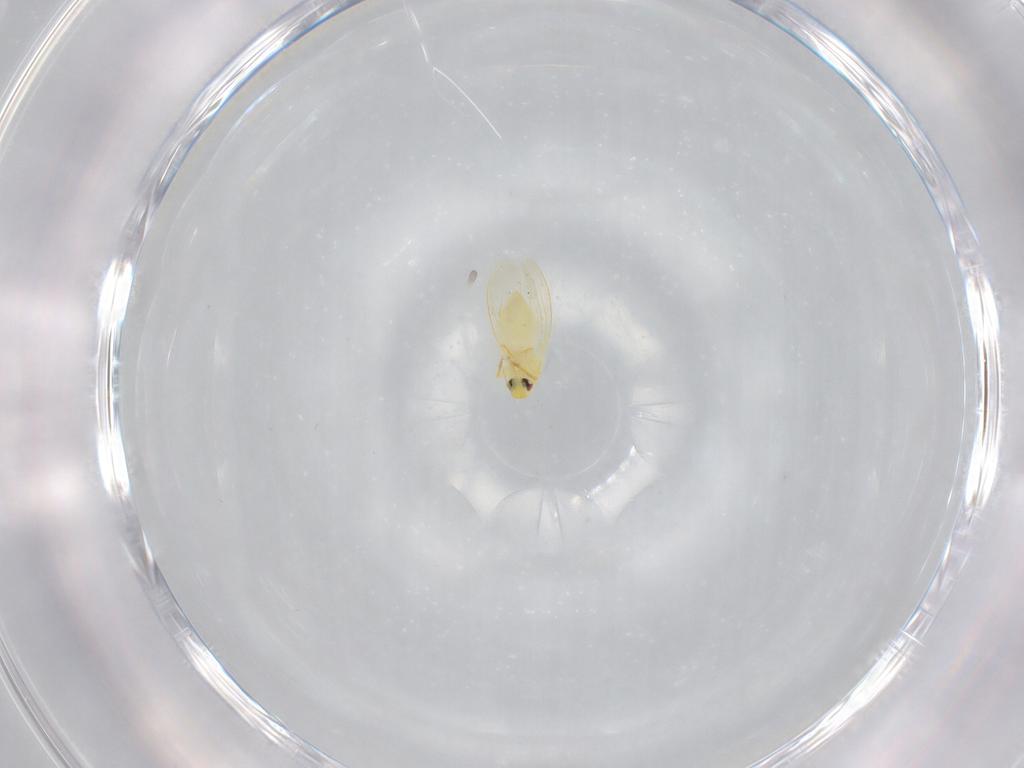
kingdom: Animalia
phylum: Arthropoda
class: Insecta
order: Hemiptera
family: Aleyrodidae
